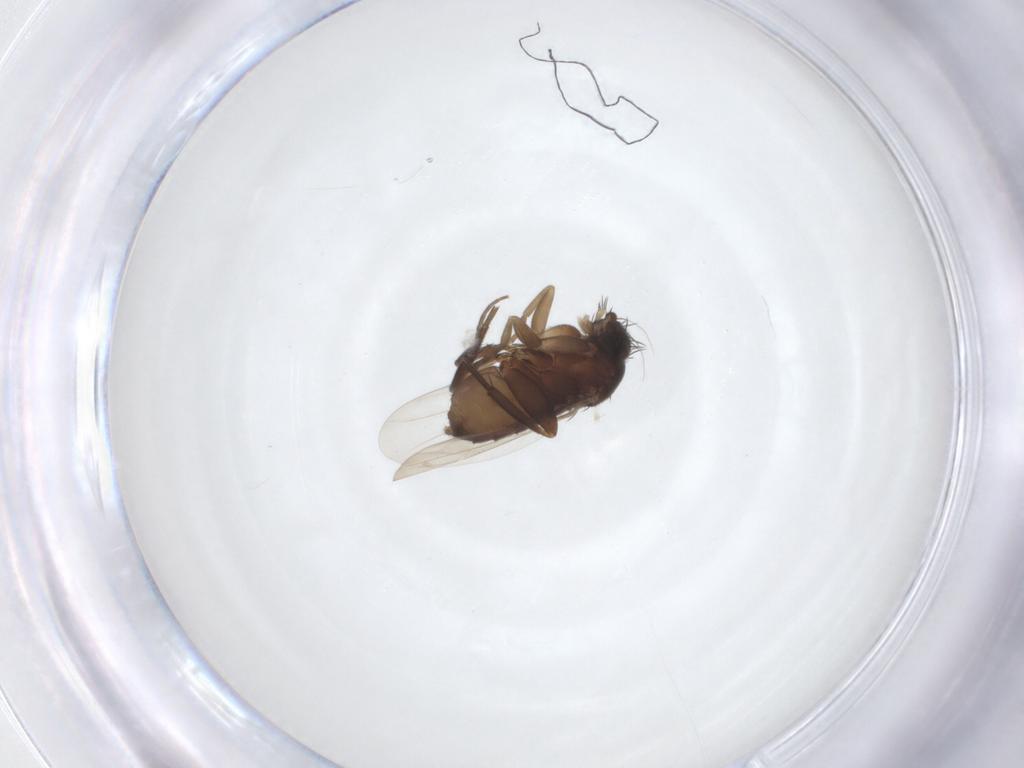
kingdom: Animalia
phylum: Arthropoda
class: Insecta
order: Diptera
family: Phoridae
